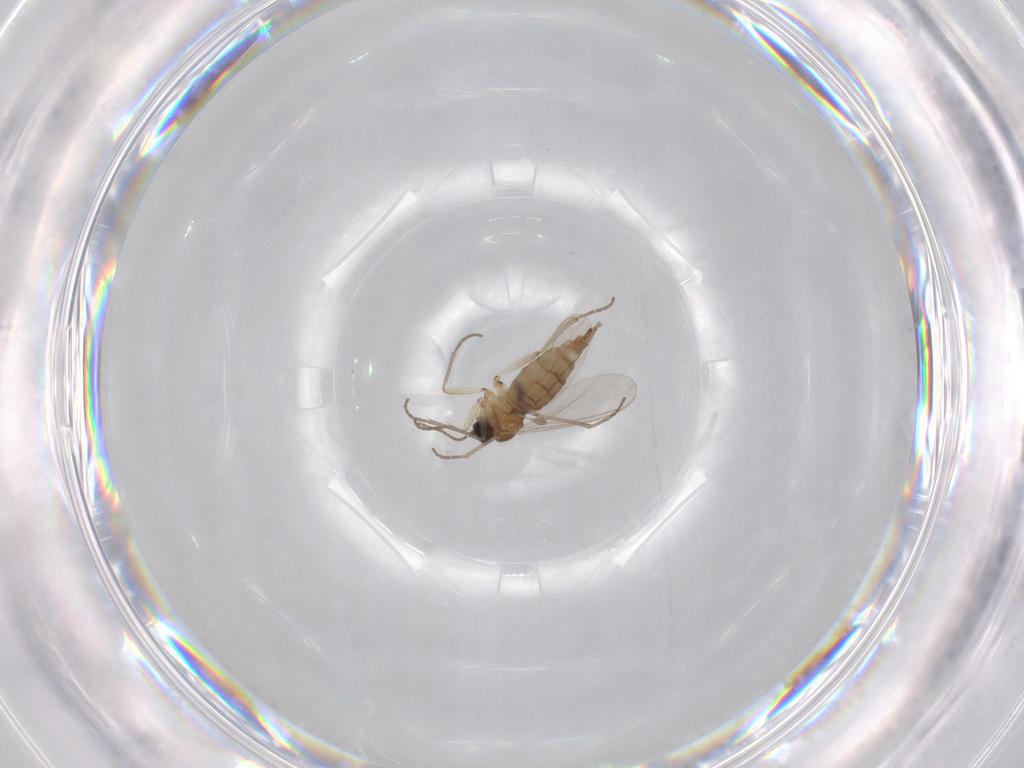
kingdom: Animalia
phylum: Arthropoda
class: Insecta
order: Diptera
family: Sciaridae
